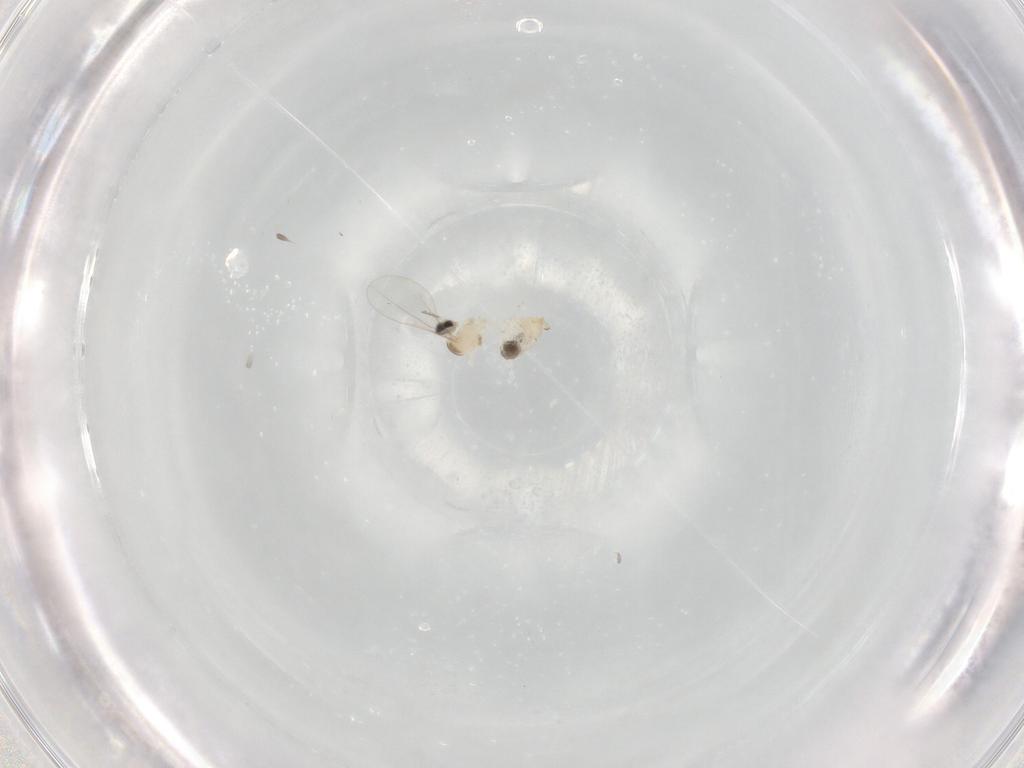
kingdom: Animalia
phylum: Arthropoda
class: Insecta
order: Diptera
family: Cecidomyiidae
